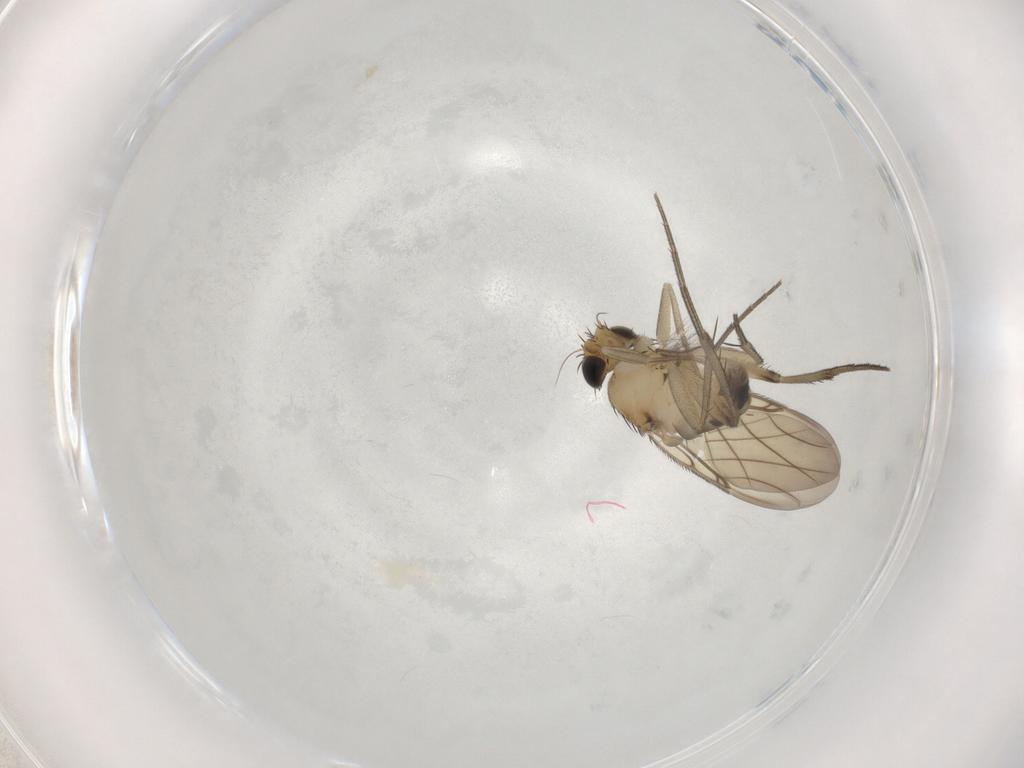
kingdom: Animalia
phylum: Arthropoda
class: Insecta
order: Diptera
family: Phoridae
